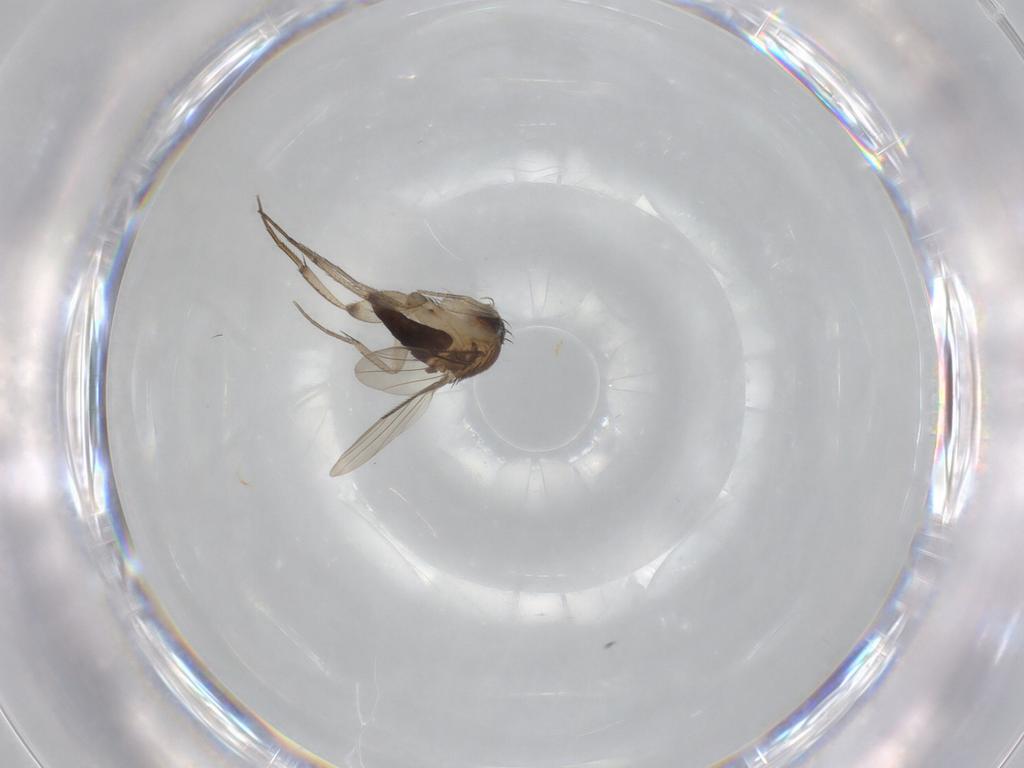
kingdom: Animalia
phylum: Arthropoda
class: Insecta
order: Diptera
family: Phoridae
